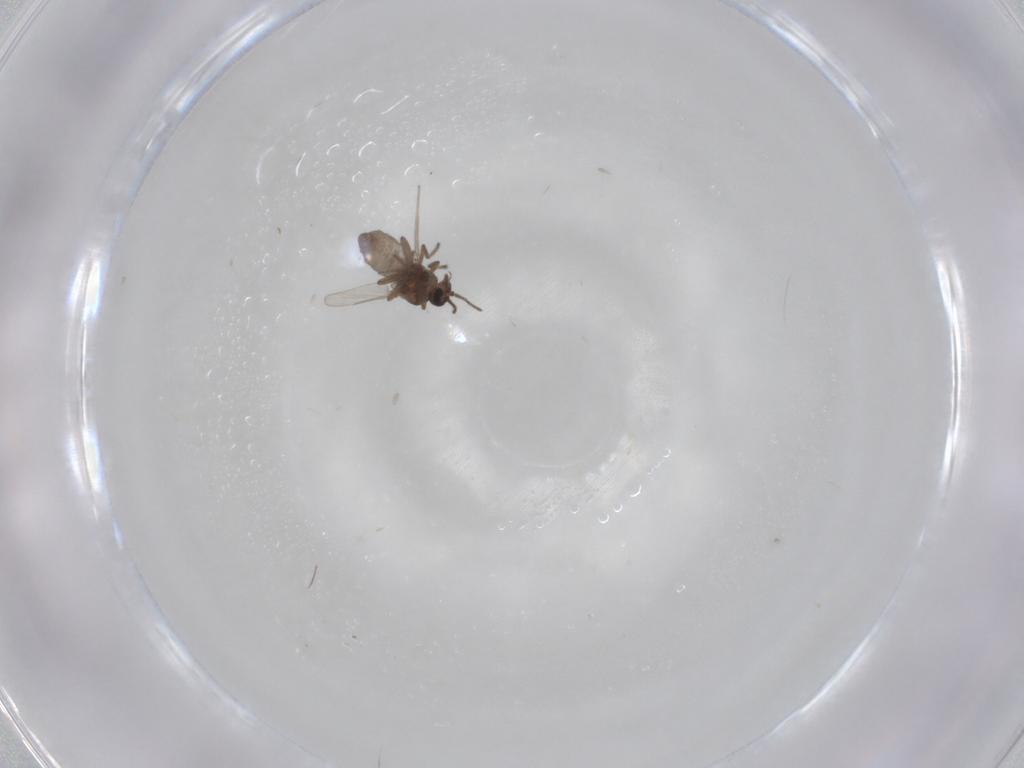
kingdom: Animalia
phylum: Arthropoda
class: Insecta
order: Diptera
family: Ceratopogonidae
